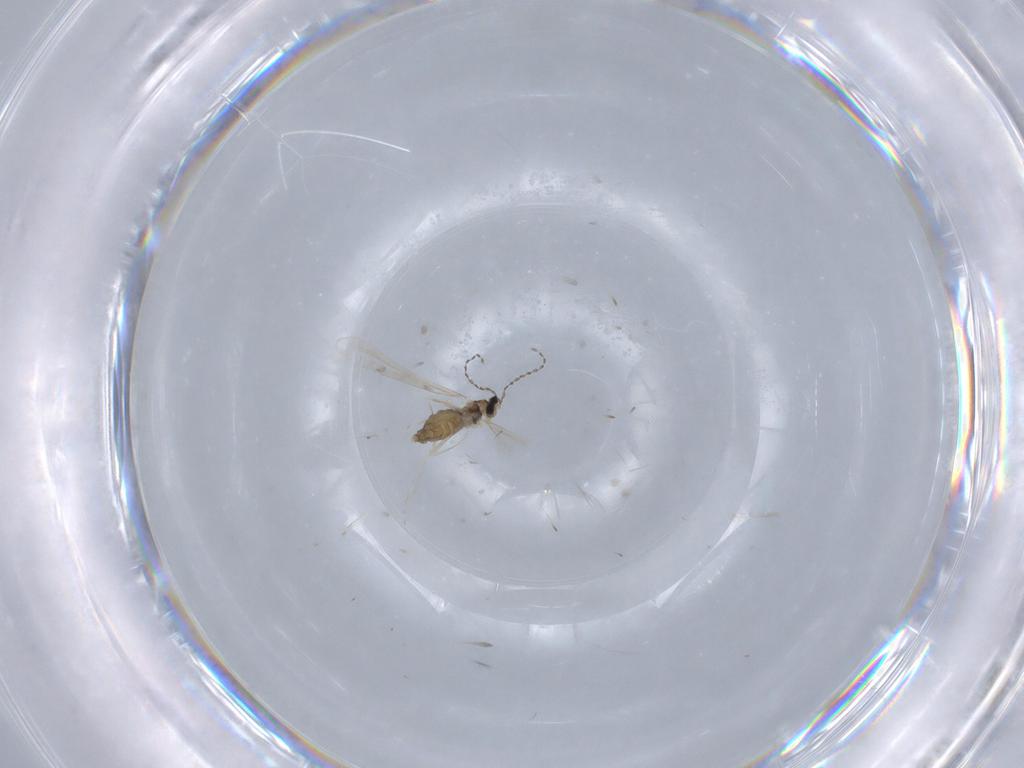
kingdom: Animalia
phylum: Arthropoda
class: Insecta
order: Diptera
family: Cecidomyiidae
